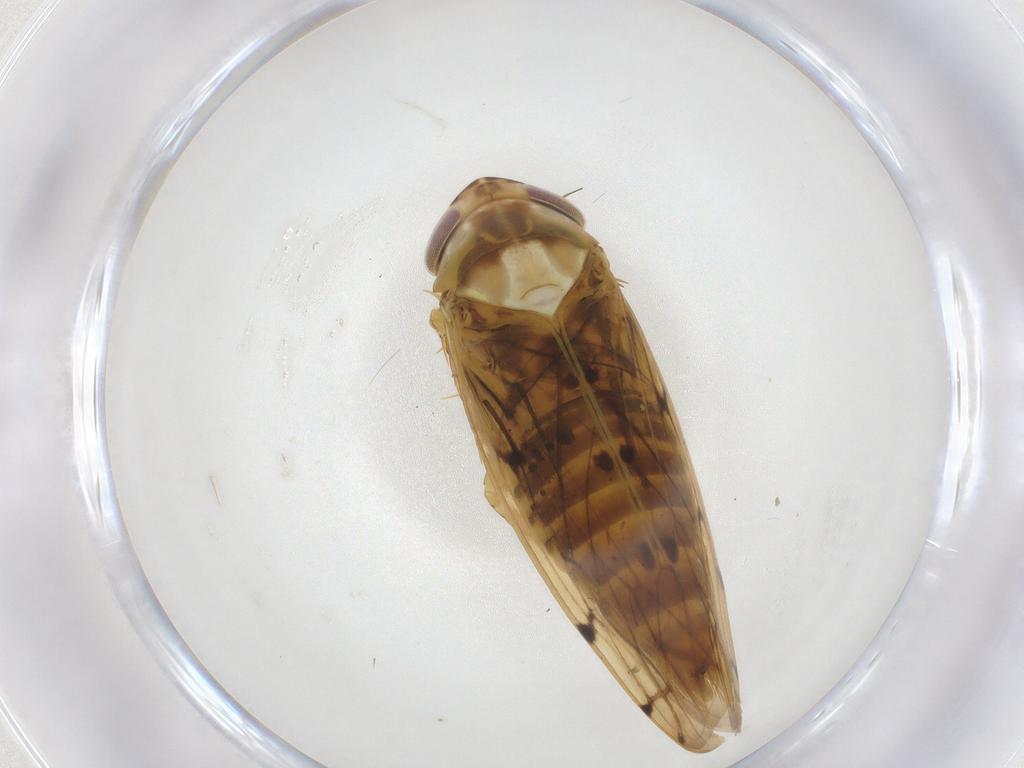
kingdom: Animalia
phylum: Arthropoda
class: Insecta
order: Hemiptera
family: Cicadellidae
